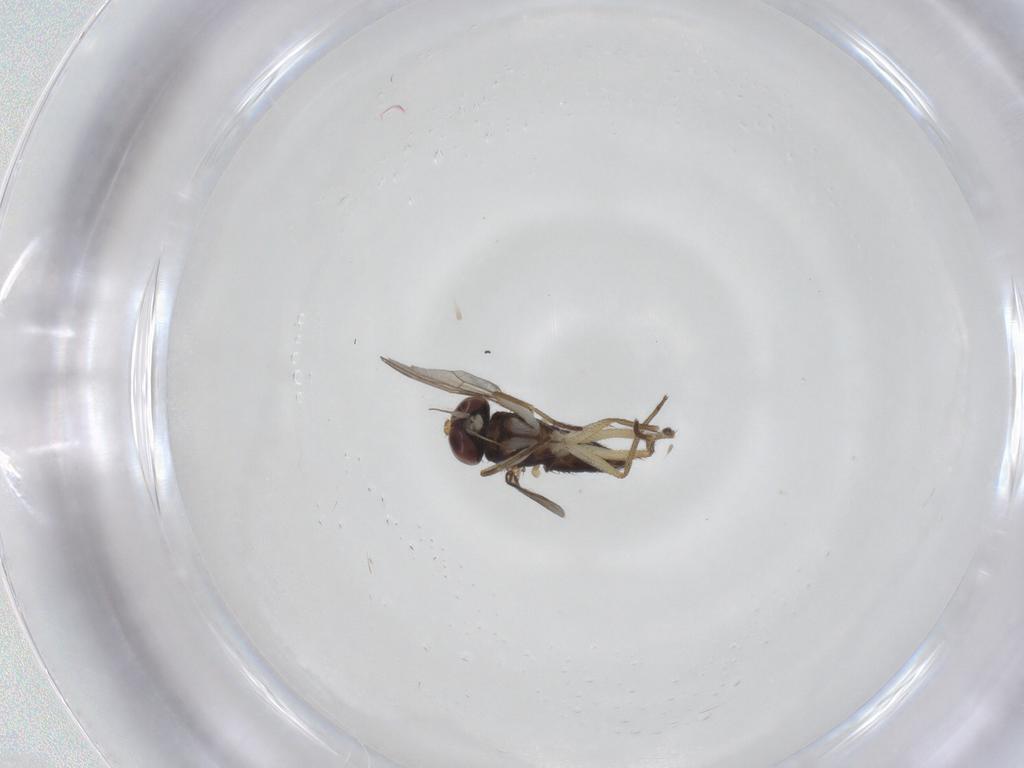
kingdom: Animalia
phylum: Arthropoda
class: Insecta
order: Diptera
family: Dolichopodidae
